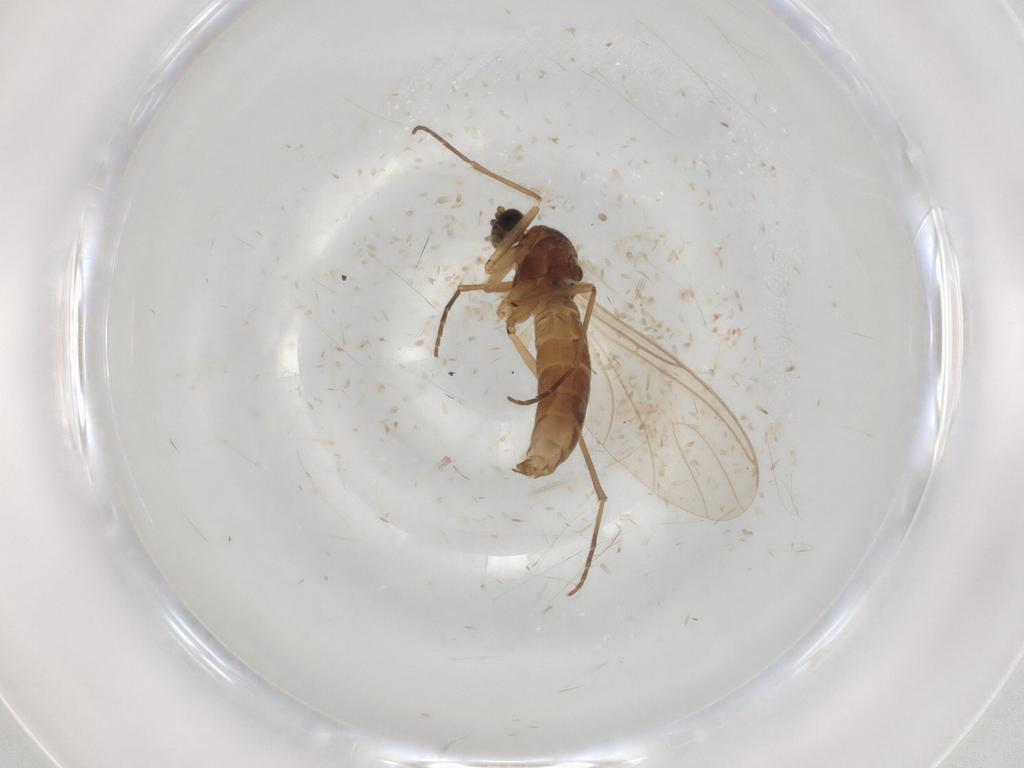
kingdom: Animalia
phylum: Arthropoda
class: Insecta
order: Diptera
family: Sciaridae
